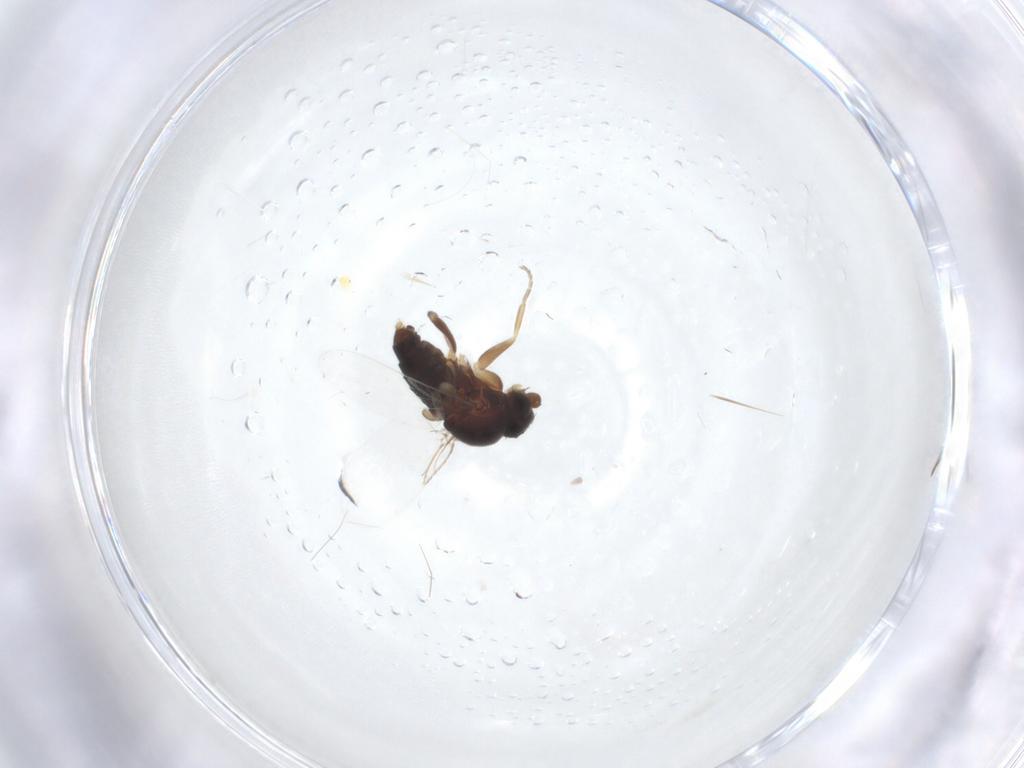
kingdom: Animalia
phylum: Arthropoda
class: Insecta
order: Diptera
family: Phoridae
